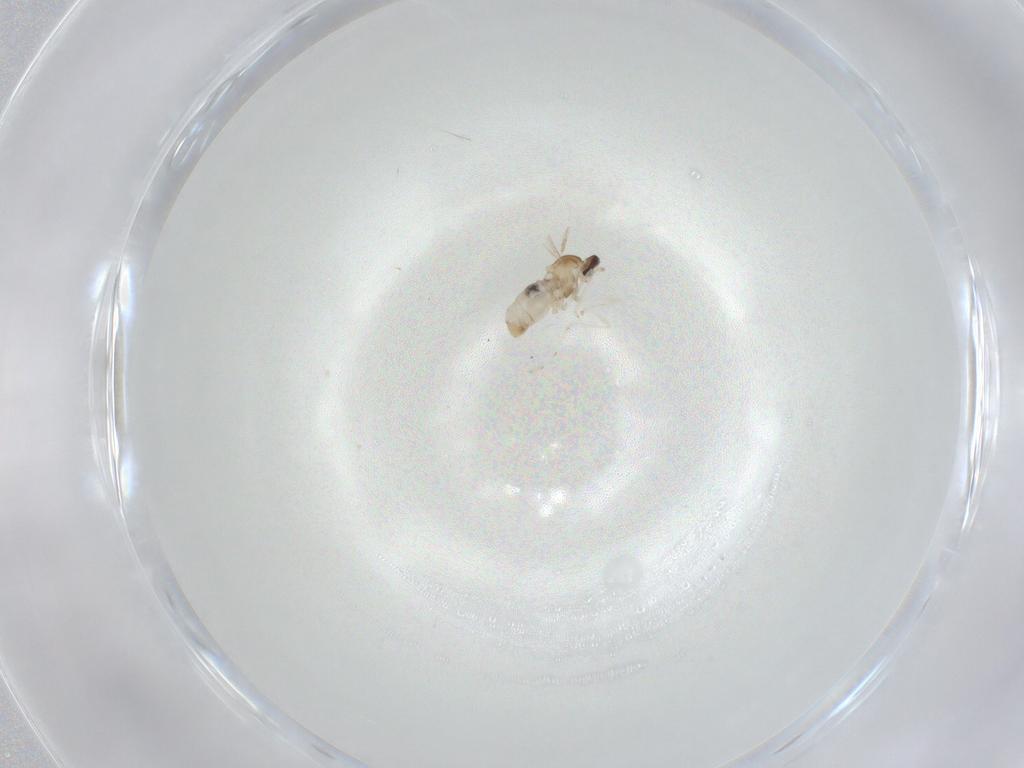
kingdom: Animalia
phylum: Arthropoda
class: Insecta
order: Diptera
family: Cecidomyiidae
